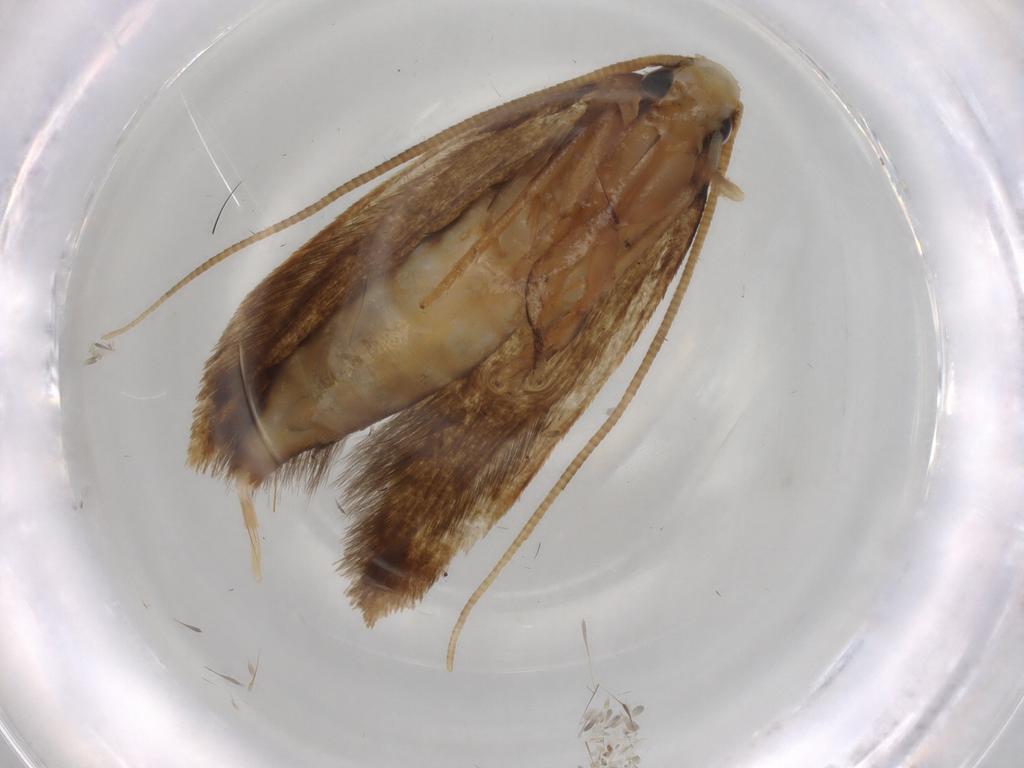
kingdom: Animalia
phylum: Arthropoda
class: Insecta
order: Lepidoptera
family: Tineidae
